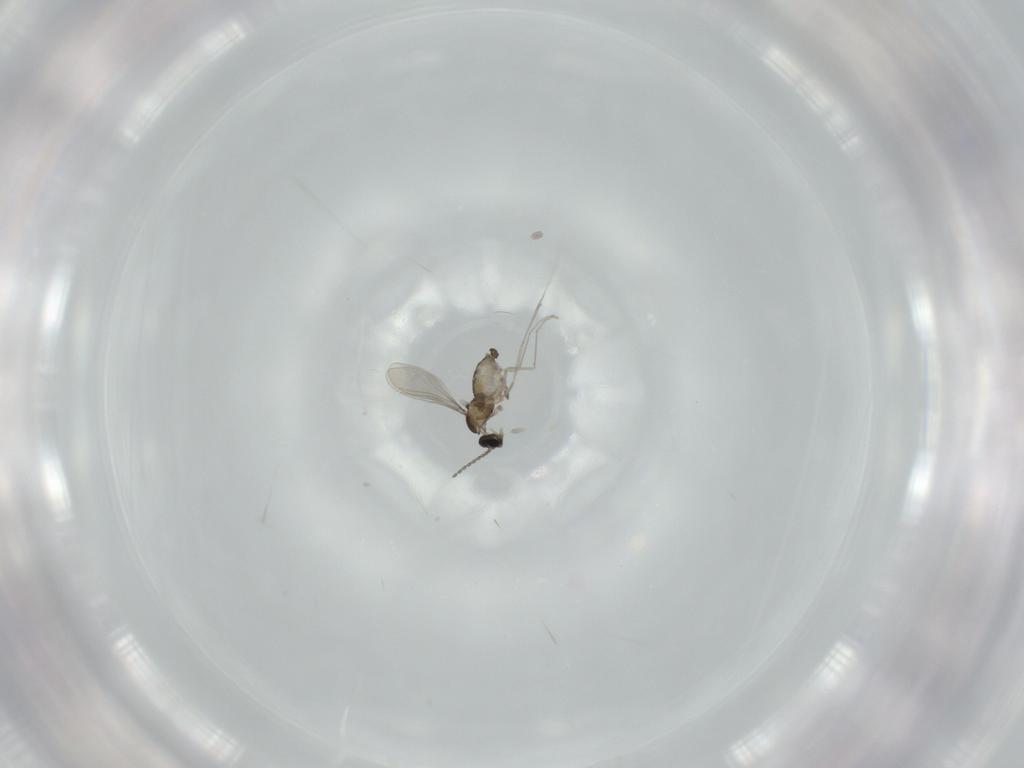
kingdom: Animalia
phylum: Arthropoda
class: Insecta
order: Diptera
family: Cecidomyiidae
